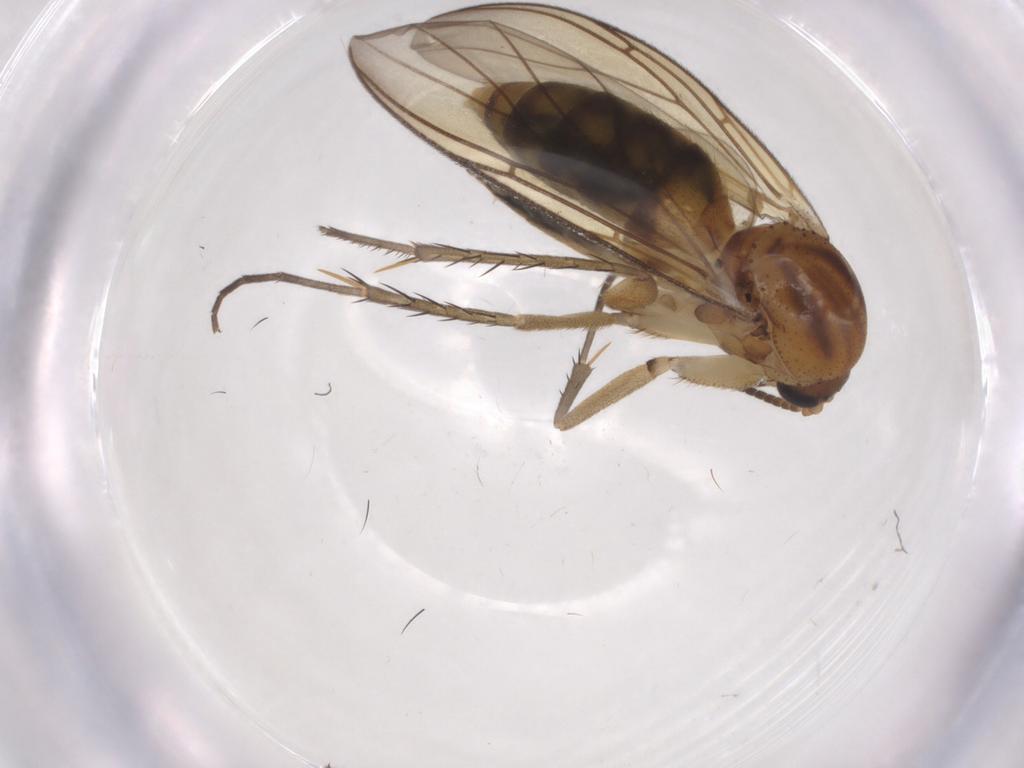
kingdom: Animalia
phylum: Arthropoda
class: Insecta
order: Diptera
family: Mycetophilidae
